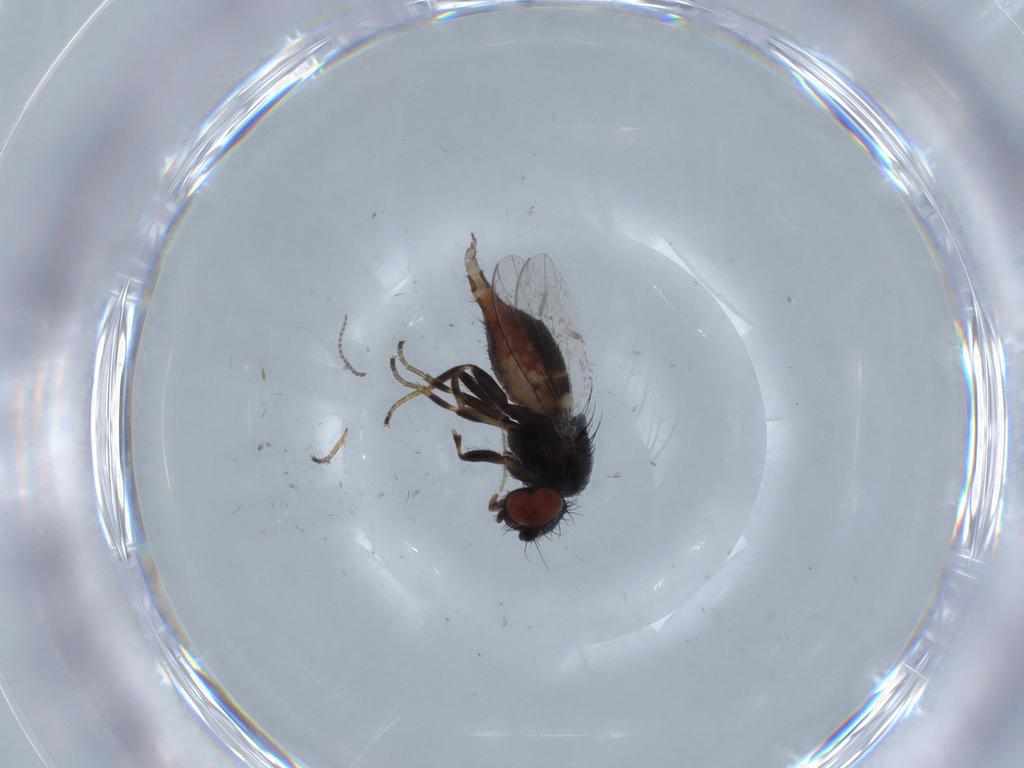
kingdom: Animalia
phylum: Arthropoda
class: Insecta
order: Diptera
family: Milichiidae
